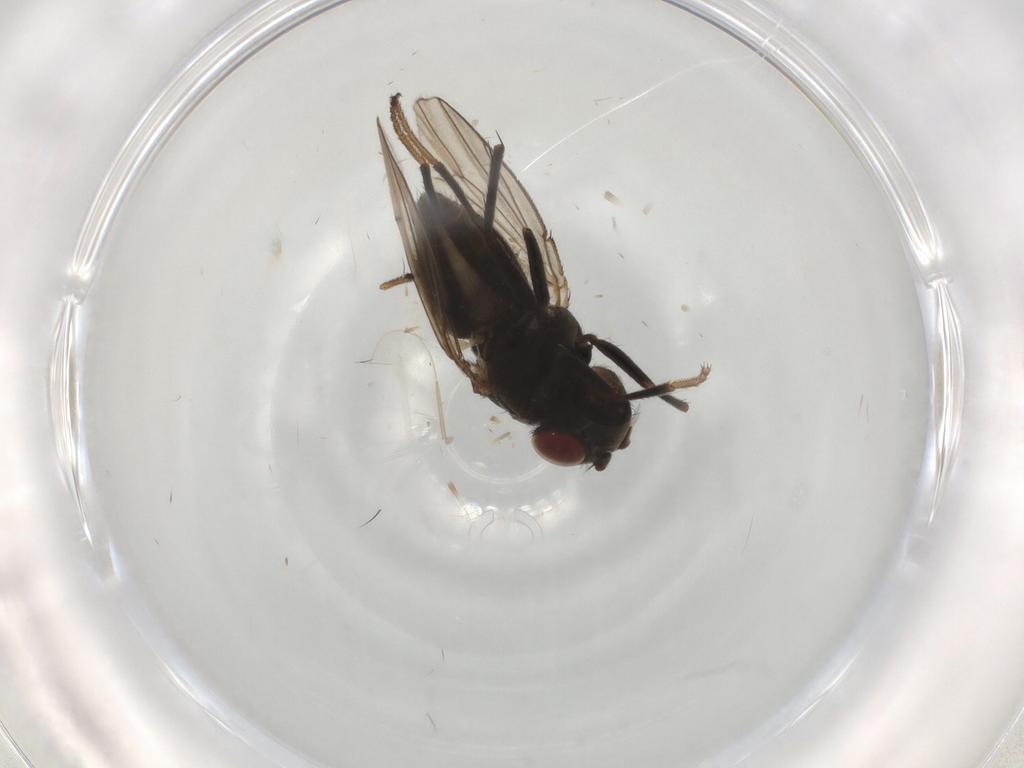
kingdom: Animalia
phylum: Arthropoda
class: Insecta
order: Diptera
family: Ephydridae
